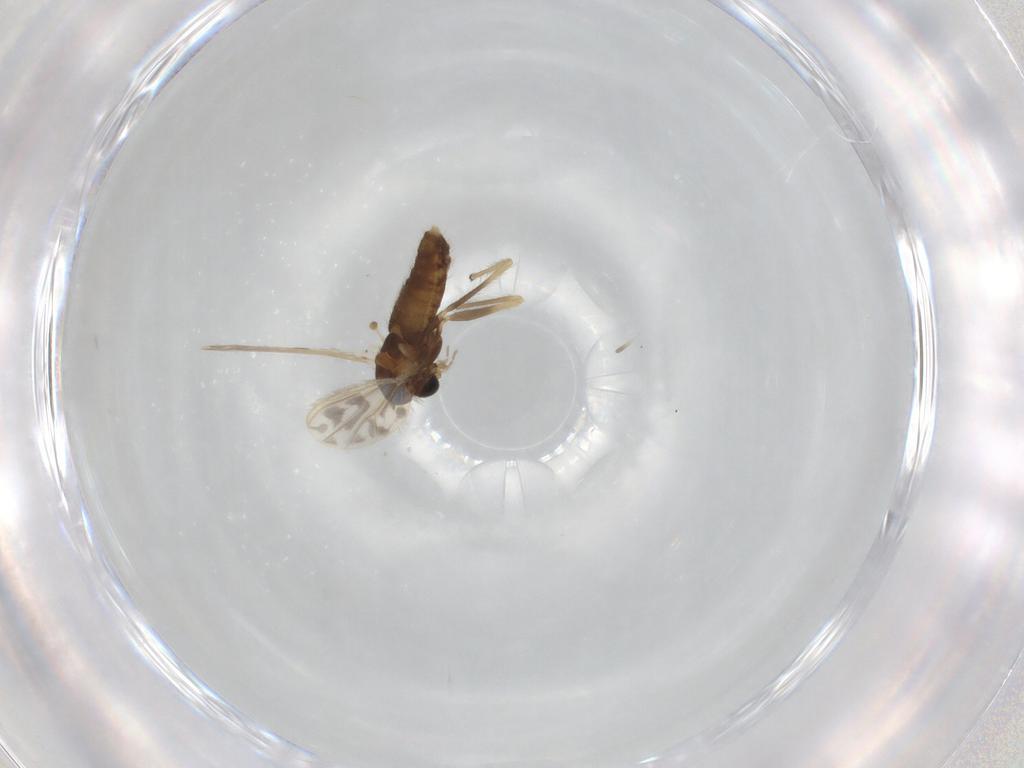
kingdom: Animalia
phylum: Arthropoda
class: Insecta
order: Diptera
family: Chironomidae
